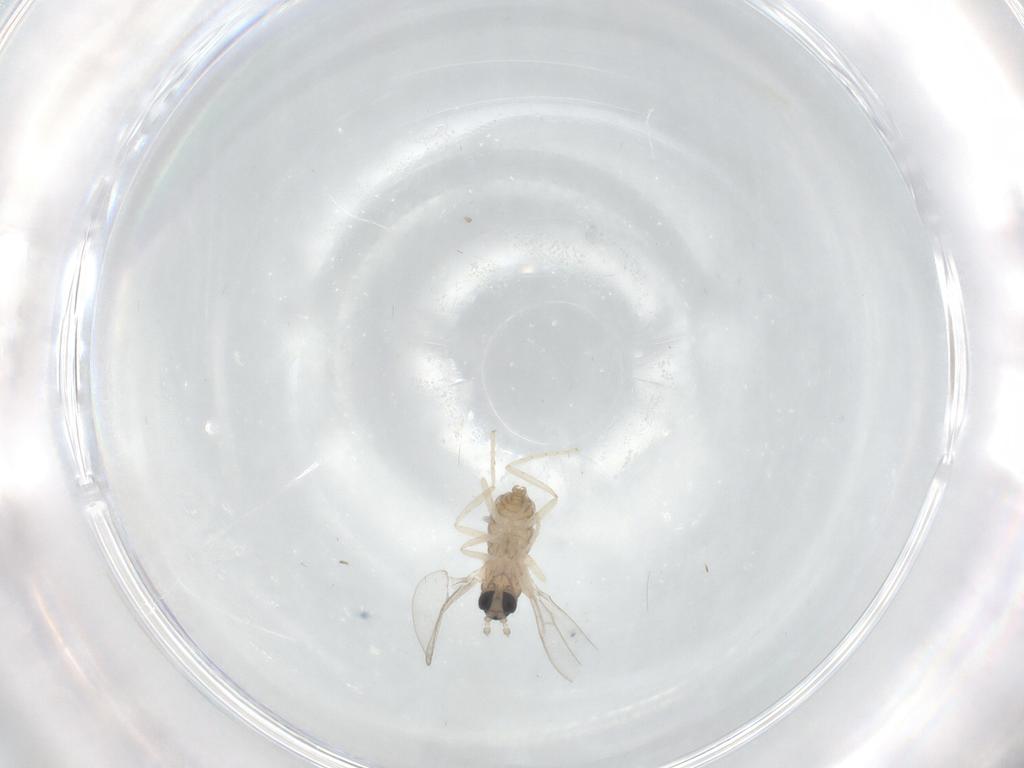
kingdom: Animalia
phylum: Arthropoda
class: Insecta
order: Diptera
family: Cecidomyiidae
